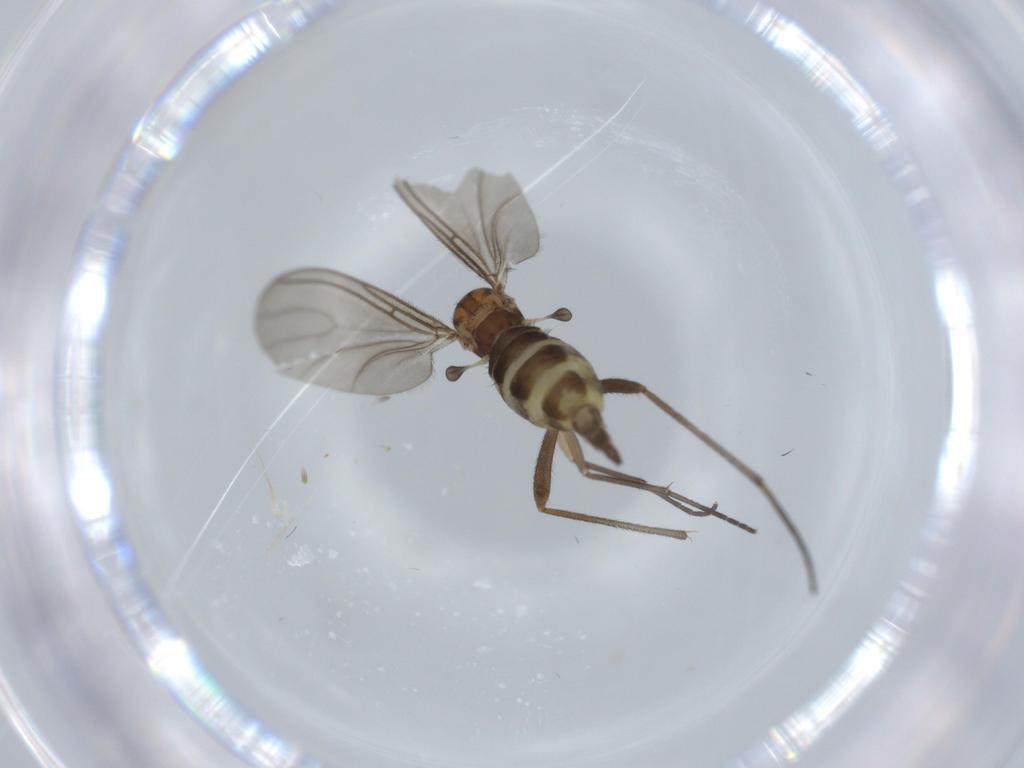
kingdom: Animalia
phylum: Arthropoda
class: Insecta
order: Diptera
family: Sciaridae
